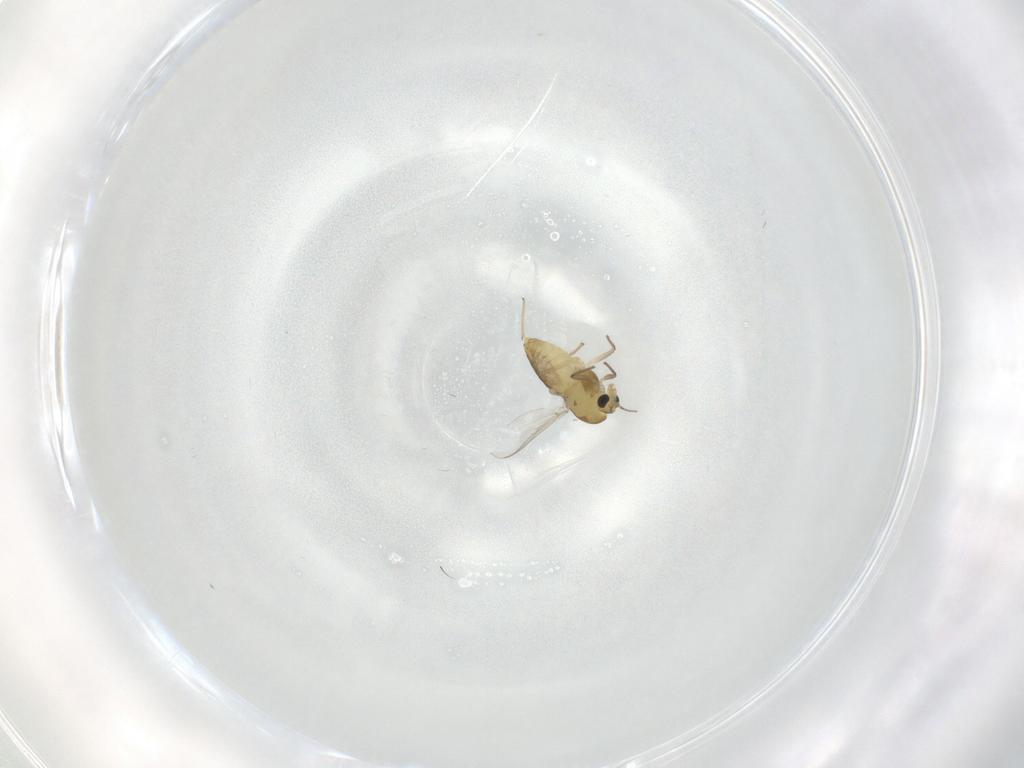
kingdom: Animalia
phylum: Arthropoda
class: Insecta
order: Diptera
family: Chironomidae
